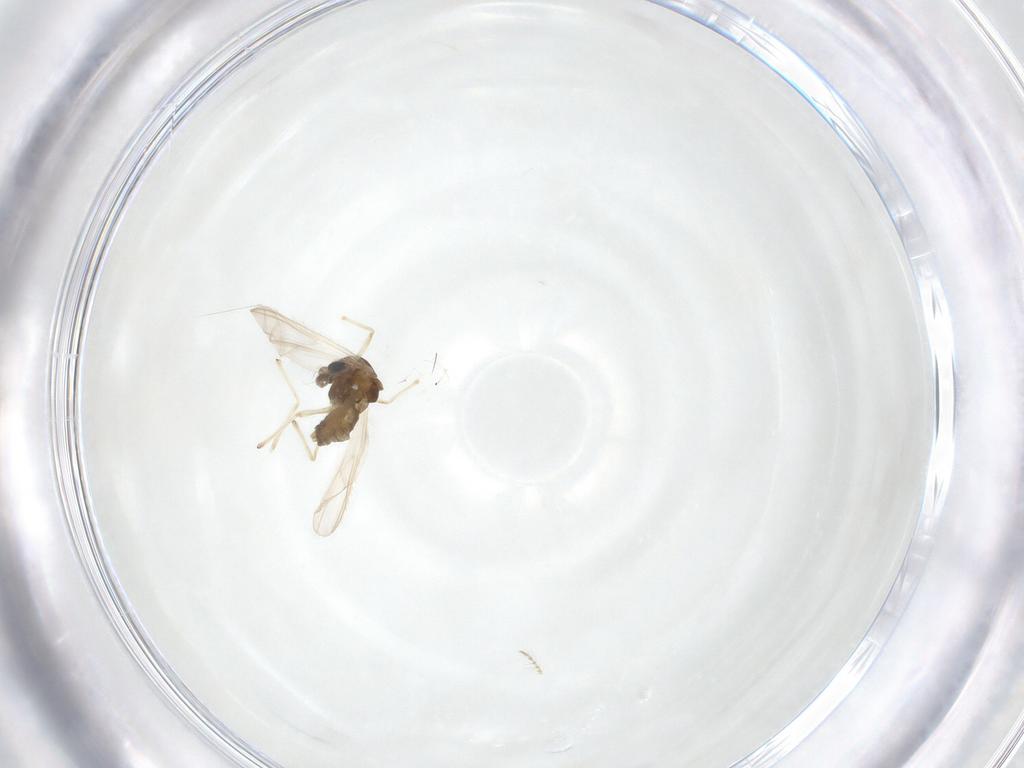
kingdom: Animalia
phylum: Arthropoda
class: Insecta
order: Diptera
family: Chironomidae
